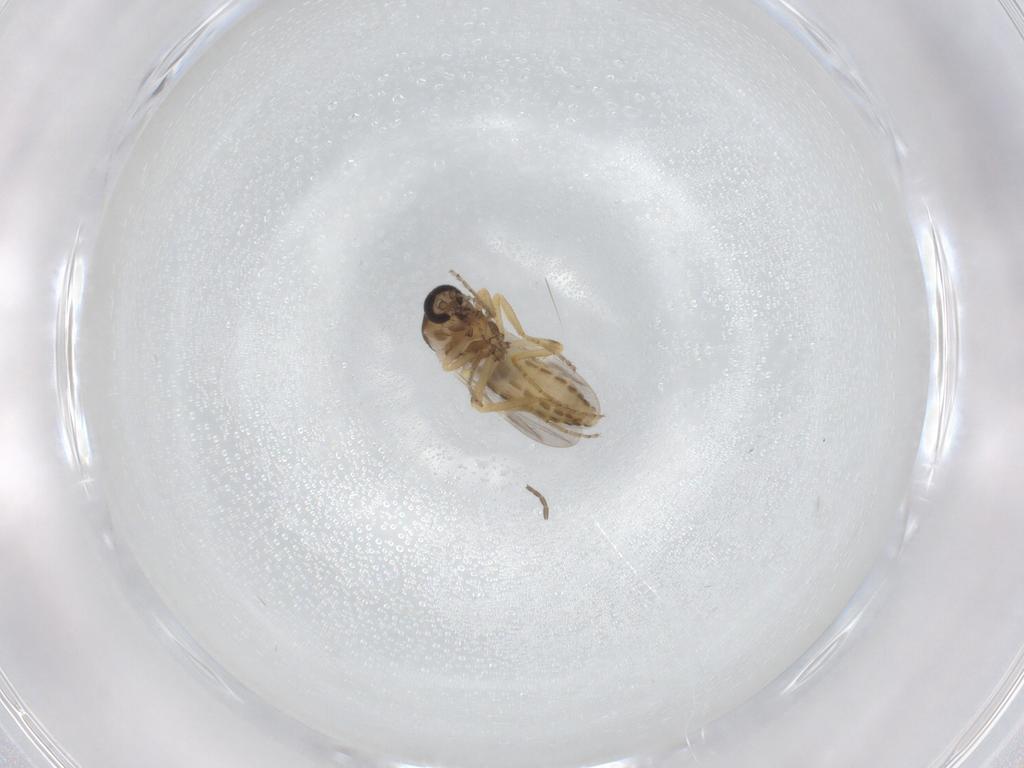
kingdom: Animalia
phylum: Arthropoda
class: Insecta
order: Diptera
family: Ceratopogonidae
